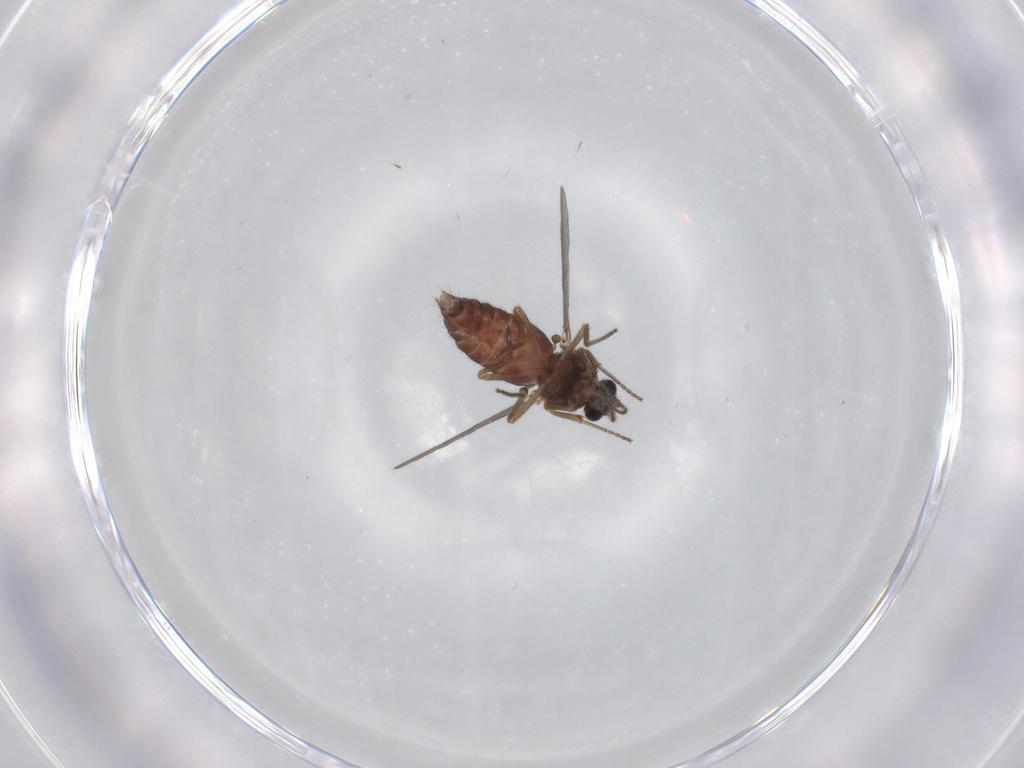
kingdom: Animalia
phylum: Arthropoda
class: Insecta
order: Diptera
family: Ceratopogonidae
